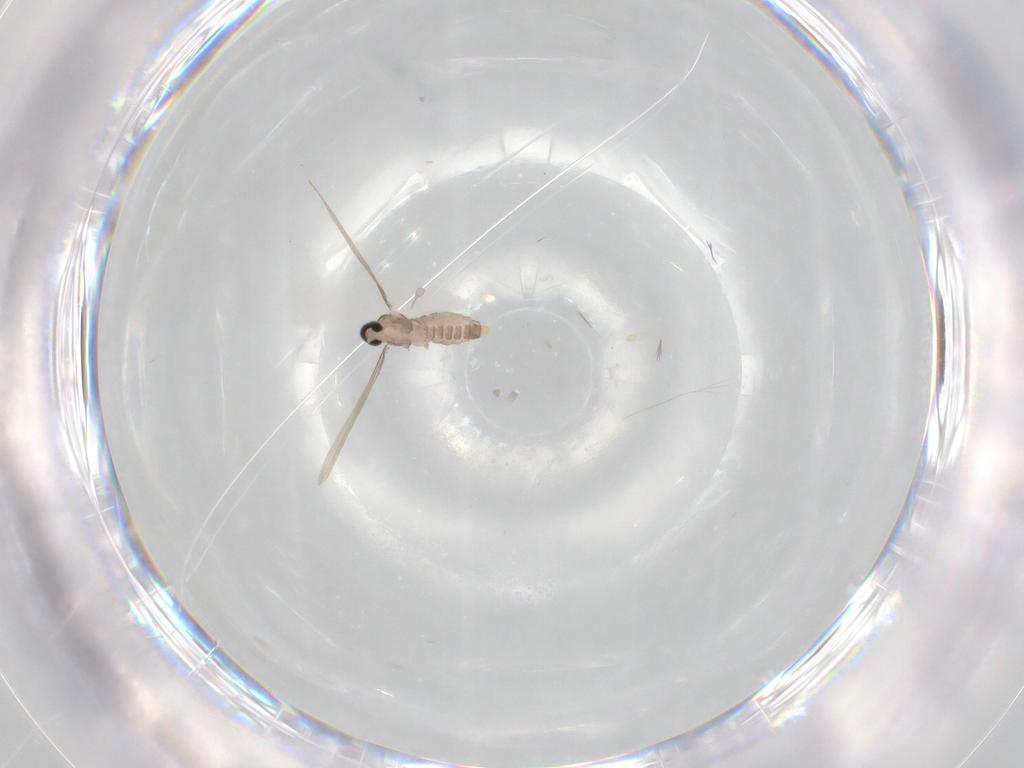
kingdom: Animalia
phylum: Arthropoda
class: Insecta
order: Diptera
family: Cecidomyiidae
